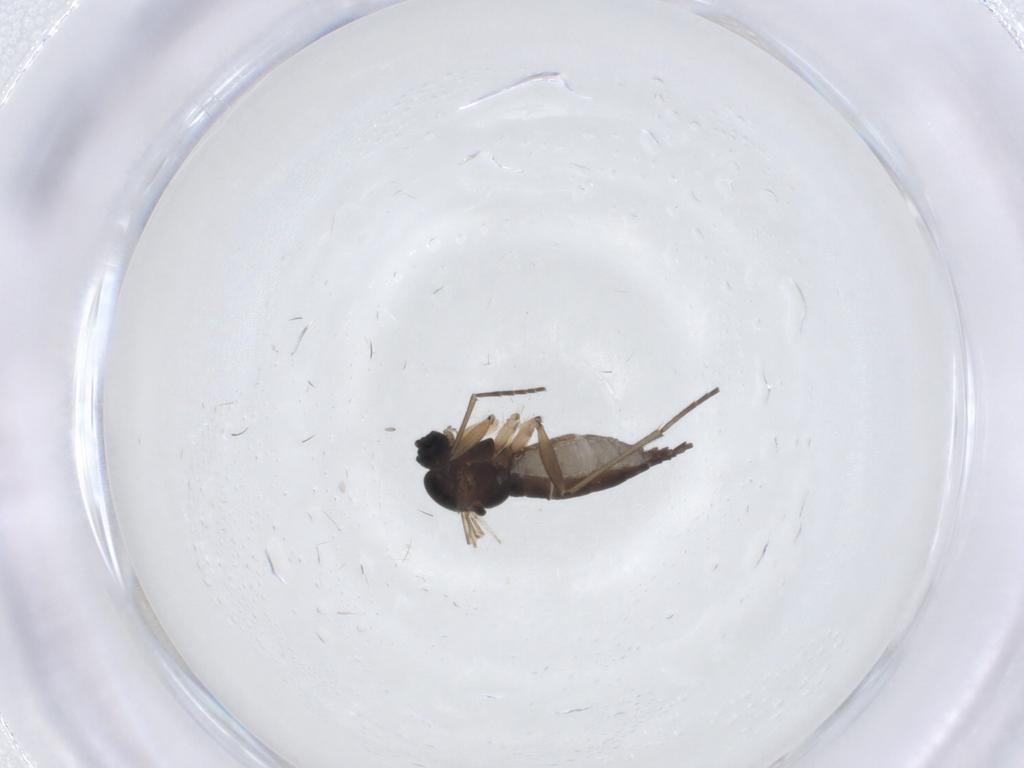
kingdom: Animalia
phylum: Arthropoda
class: Insecta
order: Diptera
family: Sciaridae
